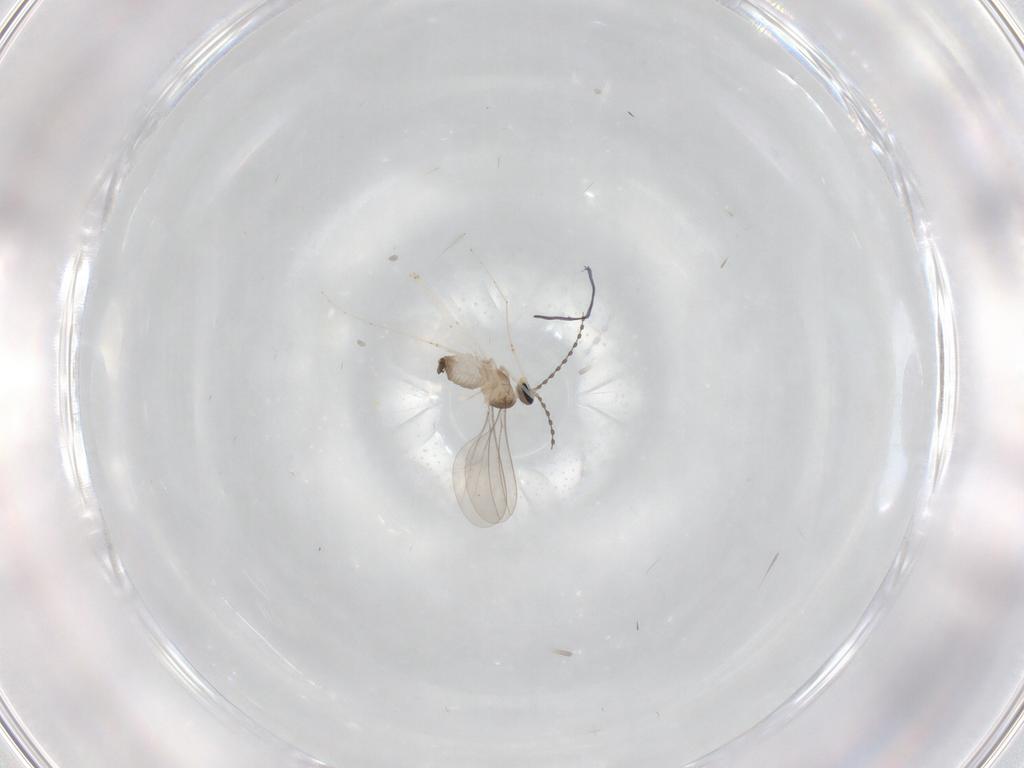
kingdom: Animalia
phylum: Arthropoda
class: Insecta
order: Diptera
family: Cecidomyiidae
